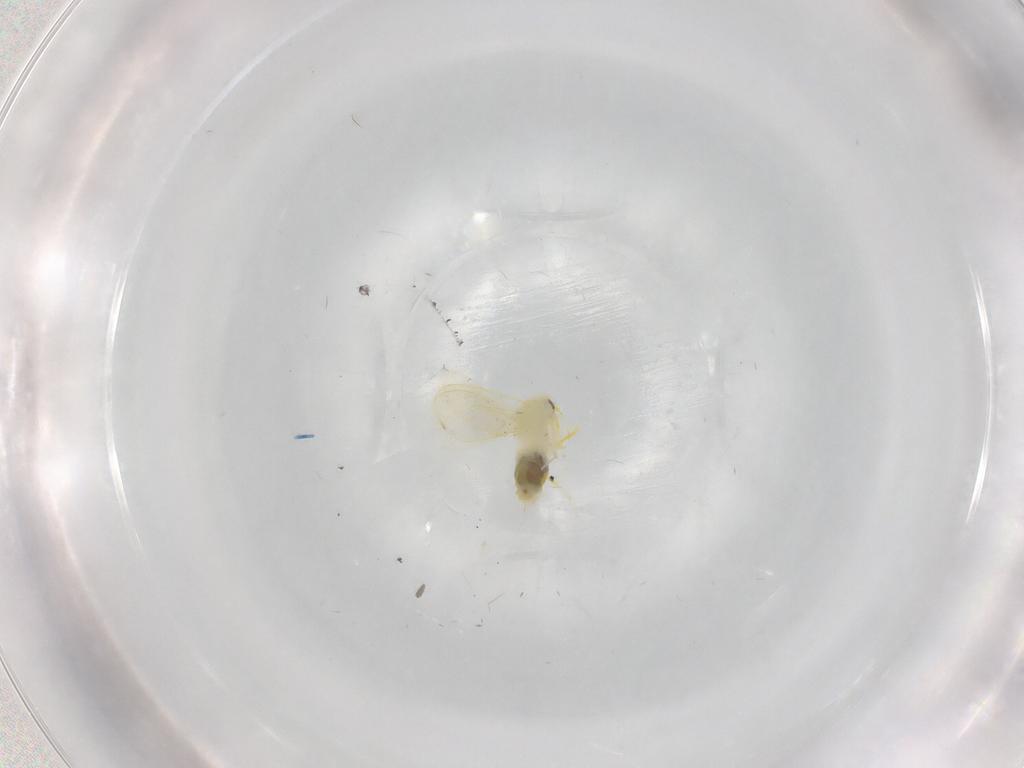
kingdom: Animalia
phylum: Arthropoda
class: Insecta
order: Hemiptera
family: Aleyrodidae
